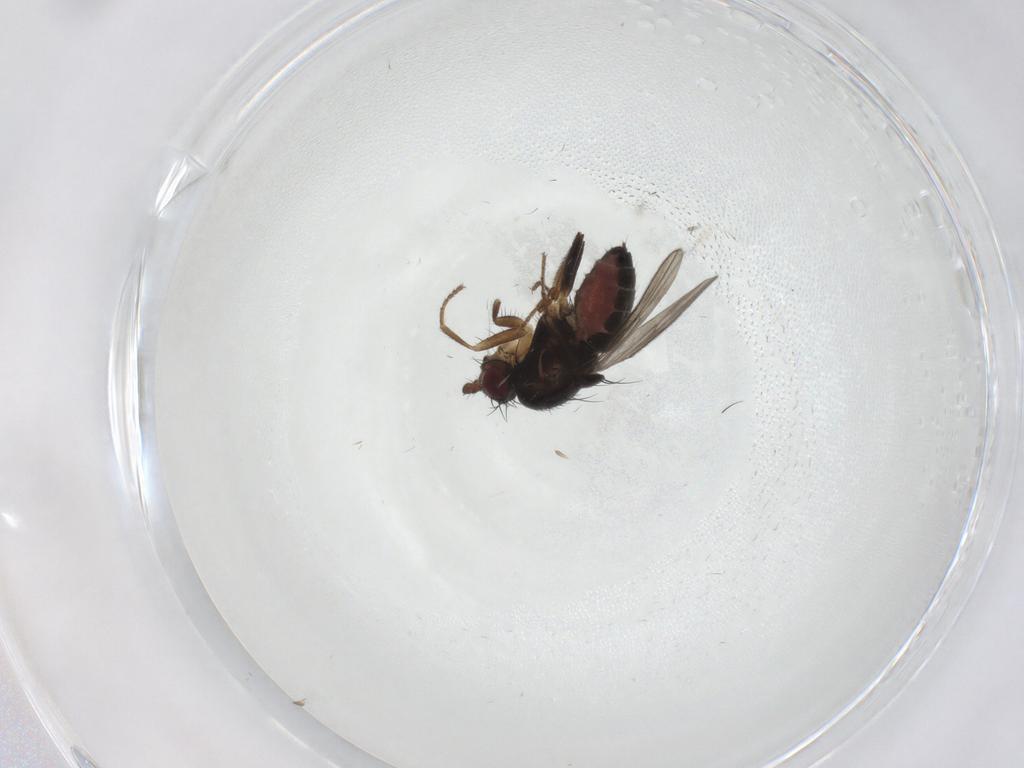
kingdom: Animalia
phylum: Arthropoda
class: Insecta
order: Diptera
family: Sphaeroceridae
